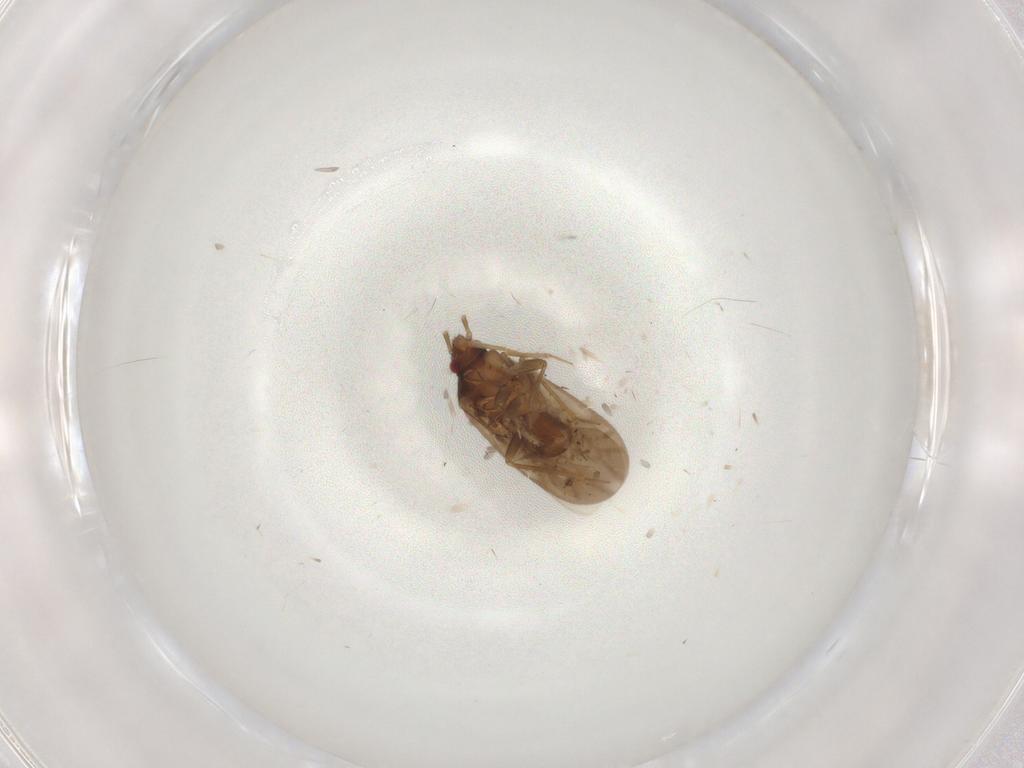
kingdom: Animalia
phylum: Arthropoda
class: Insecta
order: Hemiptera
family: Ceratocombidae
